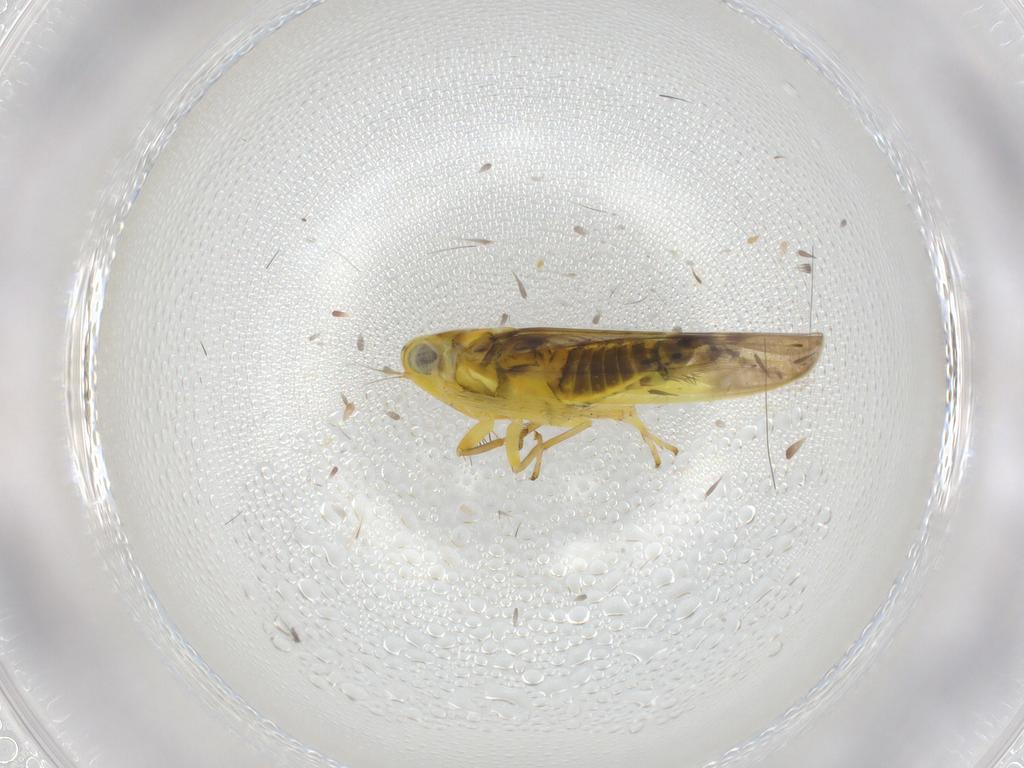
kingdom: Animalia
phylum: Arthropoda
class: Insecta
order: Hemiptera
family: Cicadellidae
